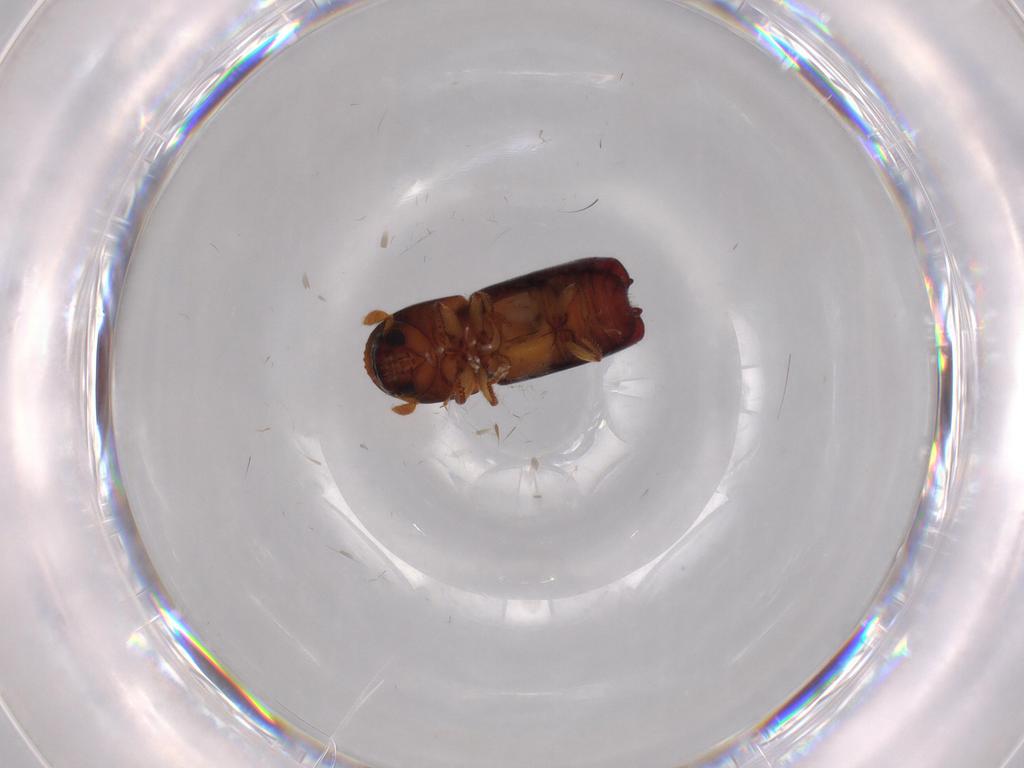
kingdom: Animalia
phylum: Arthropoda
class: Insecta
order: Coleoptera
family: Curculionidae
